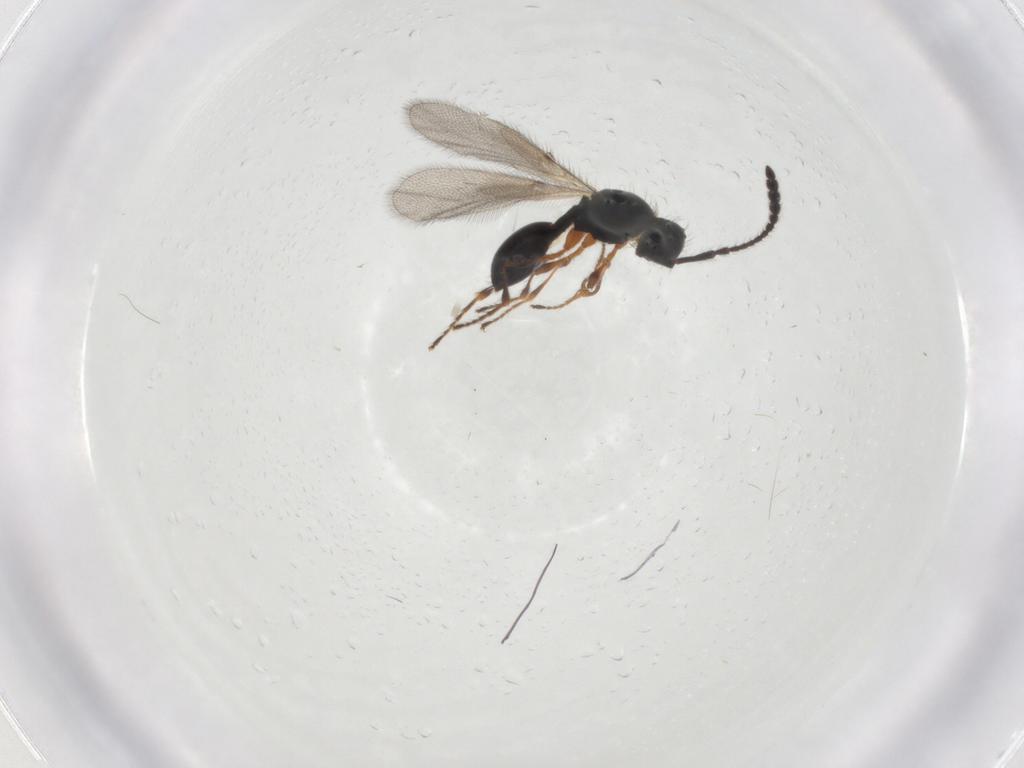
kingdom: Animalia
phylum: Arthropoda
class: Insecta
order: Hymenoptera
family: Diapriidae
